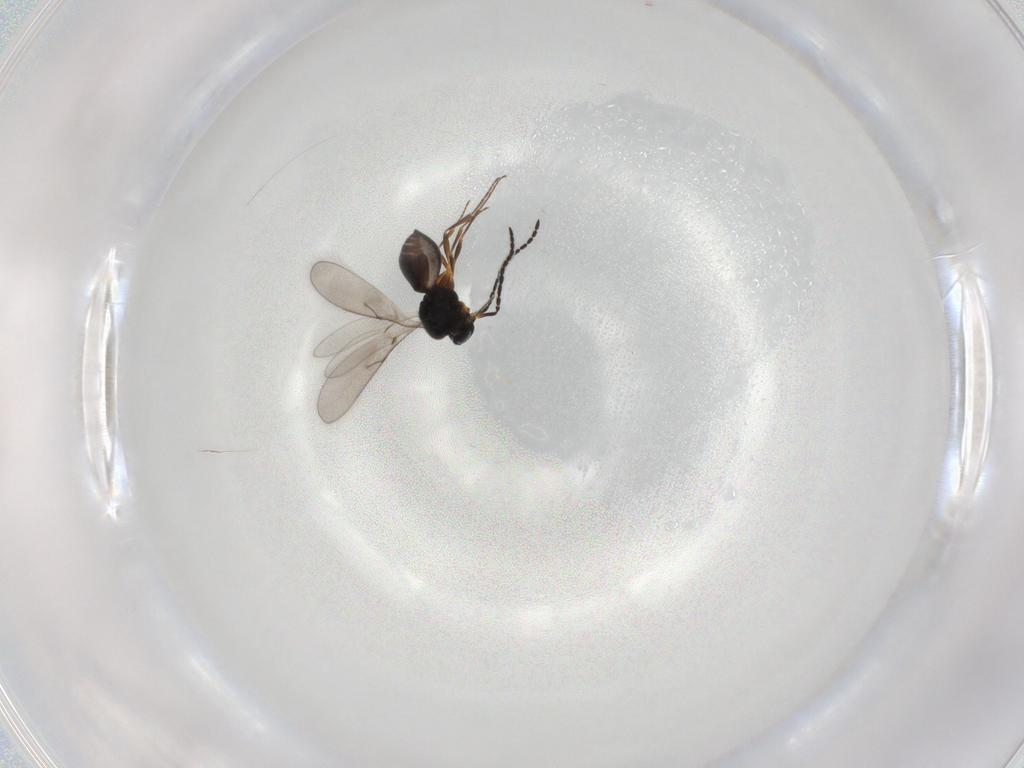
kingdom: Animalia
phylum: Arthropoda
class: Insecta
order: Hymenoptera
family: Scelionidae
